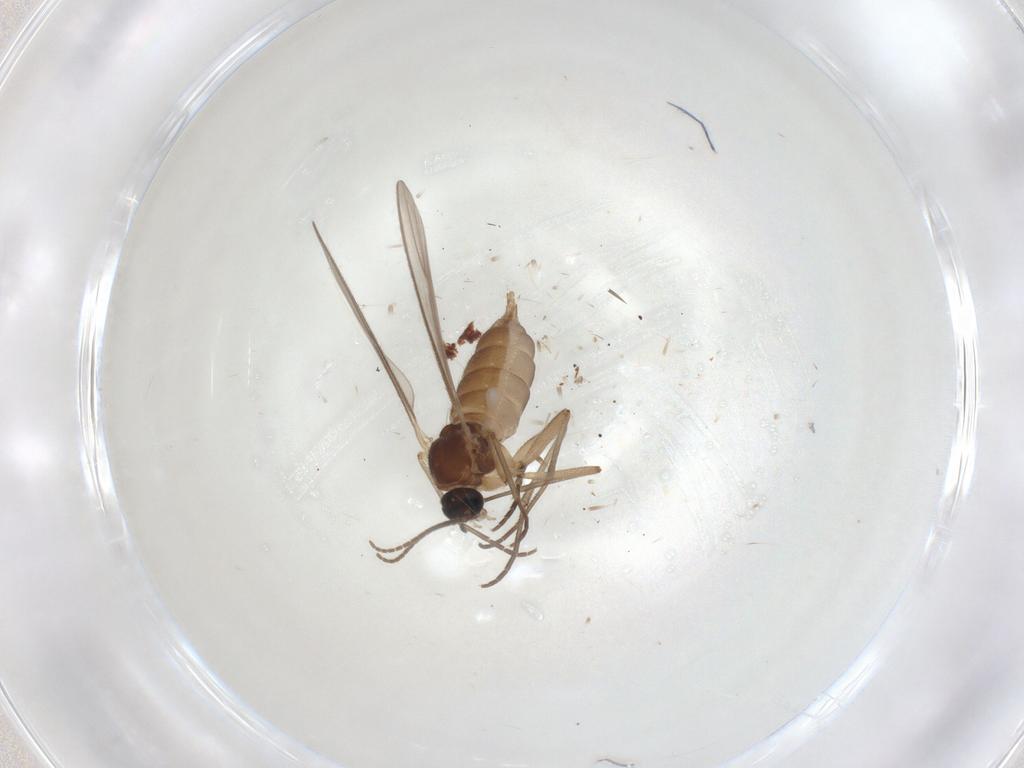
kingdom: Animalia
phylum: Arthropoda
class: Insecta
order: Diptera
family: Sciaridae
